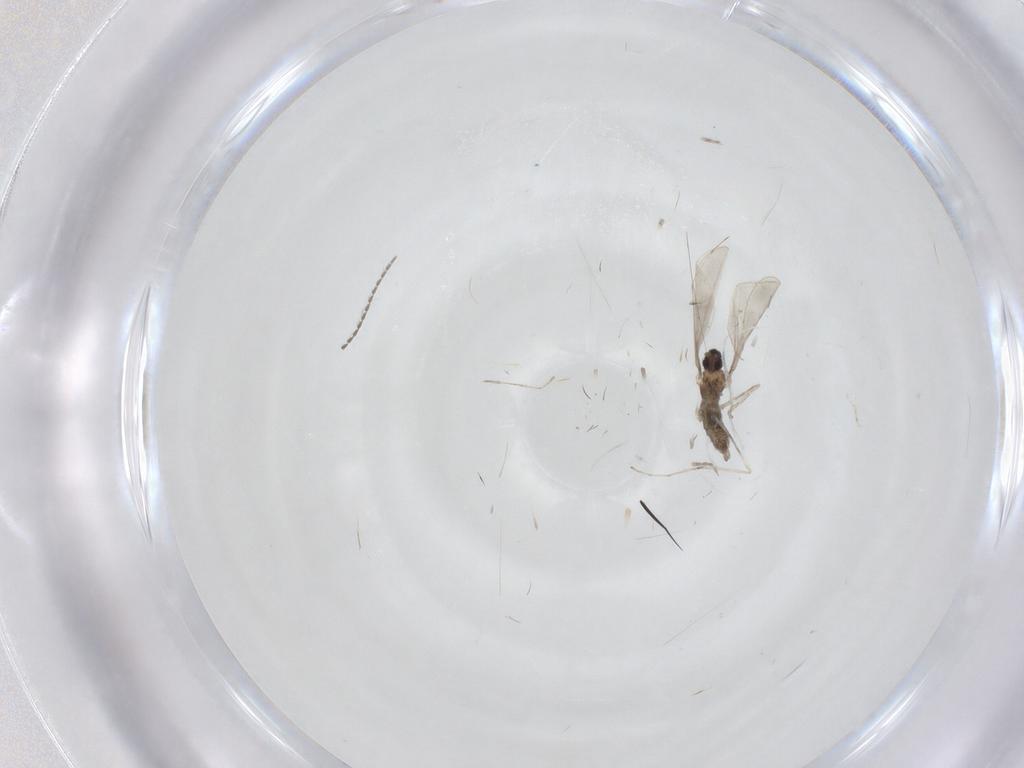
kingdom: Animalia
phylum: Arthropoda
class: Insecta
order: Diptera
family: Cecidomyiidae
